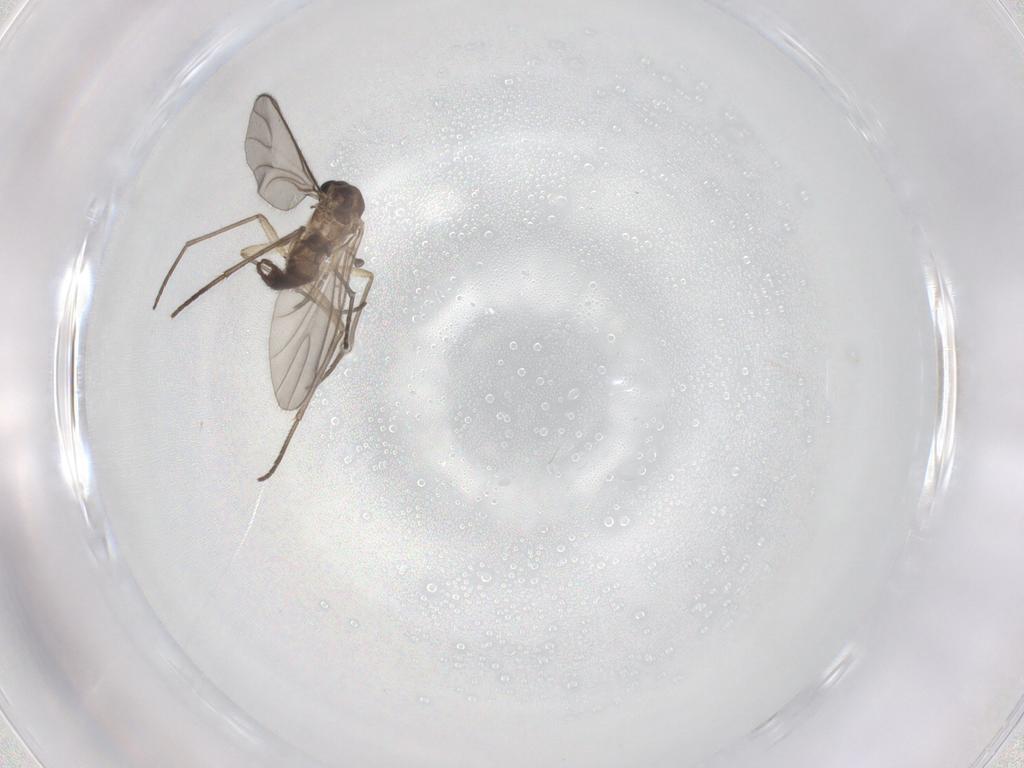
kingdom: Animalia
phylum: Arthropoda
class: Insecta
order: Diptera
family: Sciaridae
